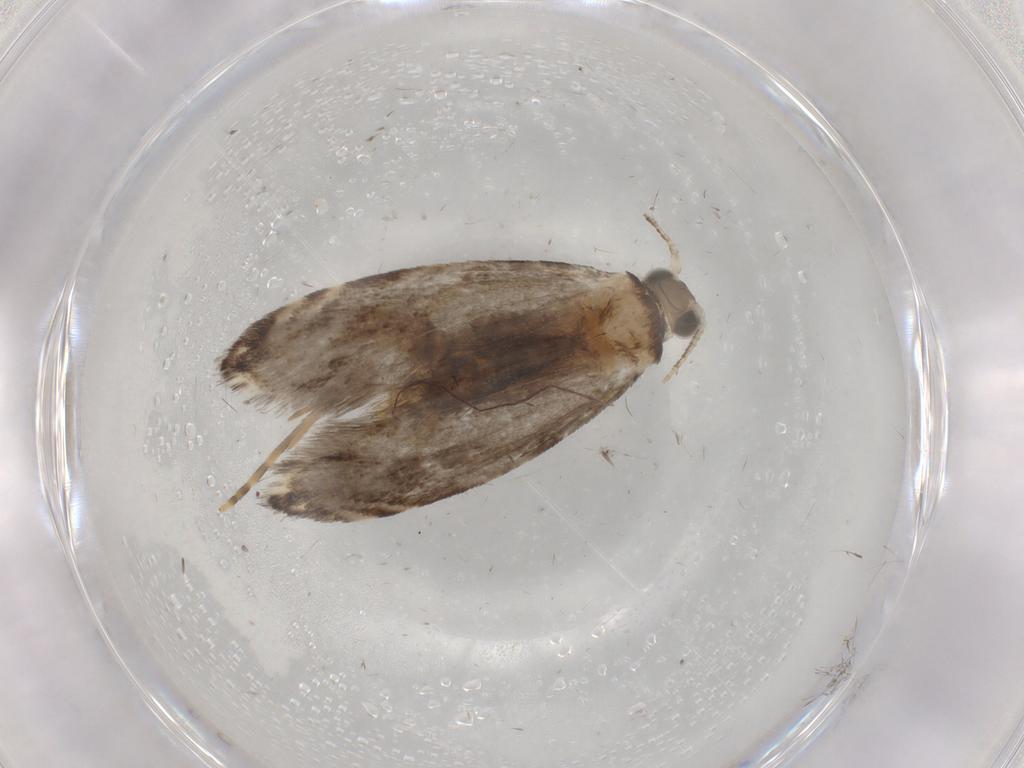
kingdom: Animalia
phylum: Arthropoda
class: Insecta
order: Lepidoptera
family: Tineidae
